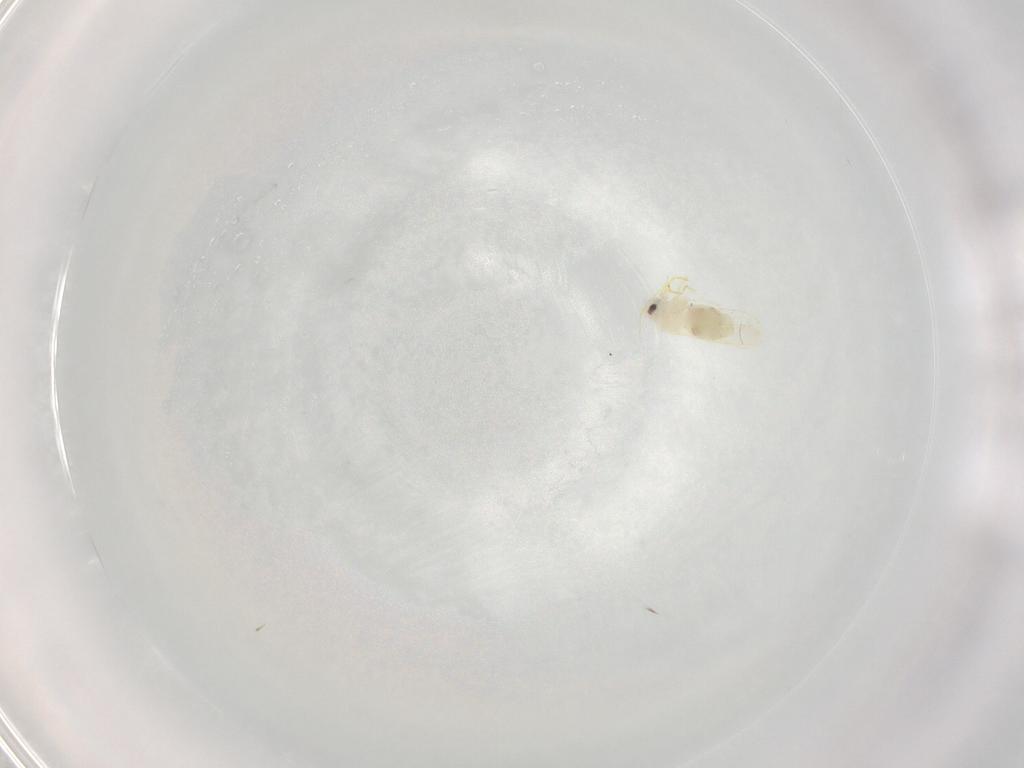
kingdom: Animalia
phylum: Arthropoda
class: Insecta
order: Hemiptera
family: Aleyrodidae
